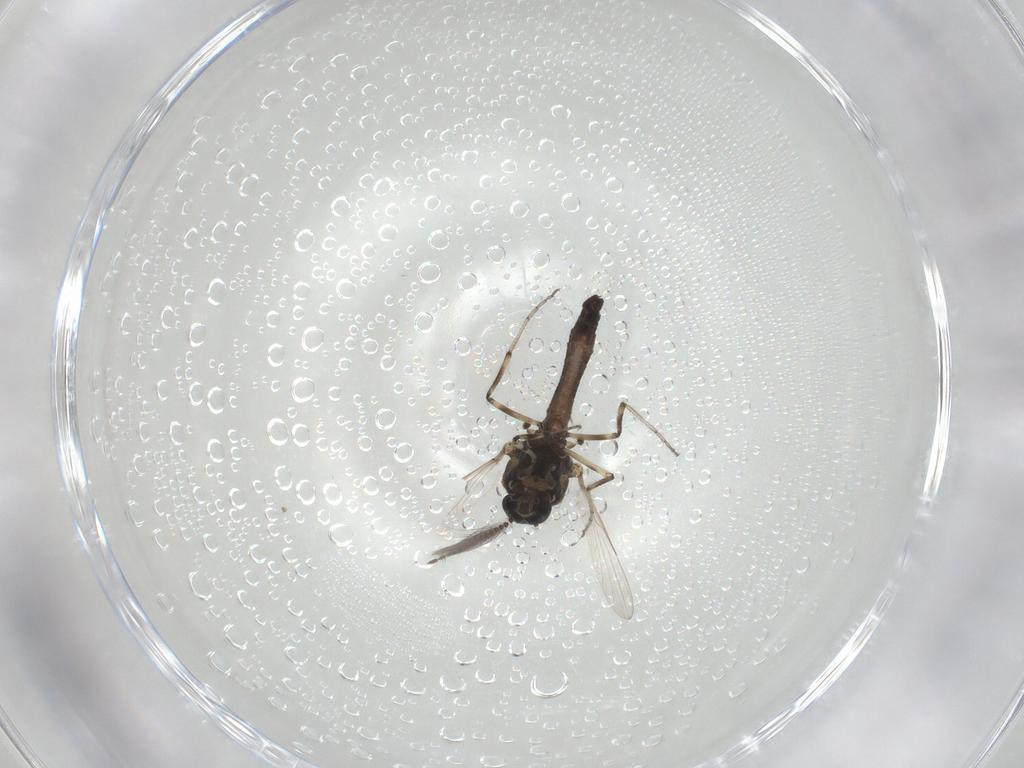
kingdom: Animalia
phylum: Arthropoda
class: Insecta
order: Diptera
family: Ceratopogonidae
